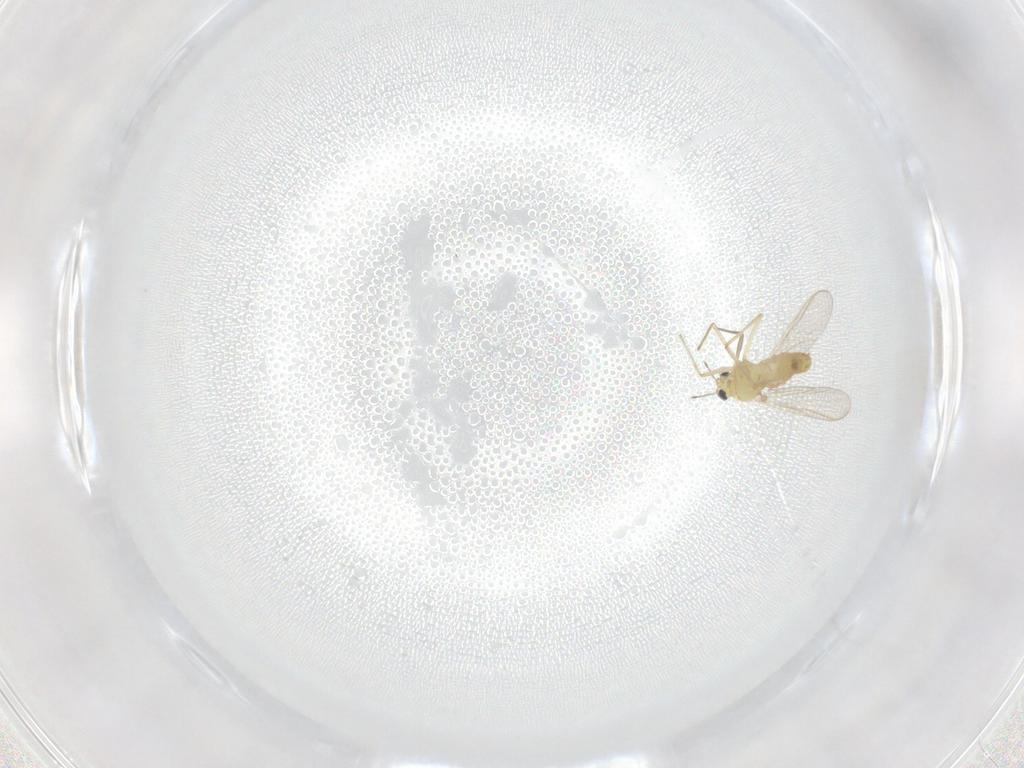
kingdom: Animalia
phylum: Arthropoda
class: Insecta
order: Diptera
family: Chironomidae
